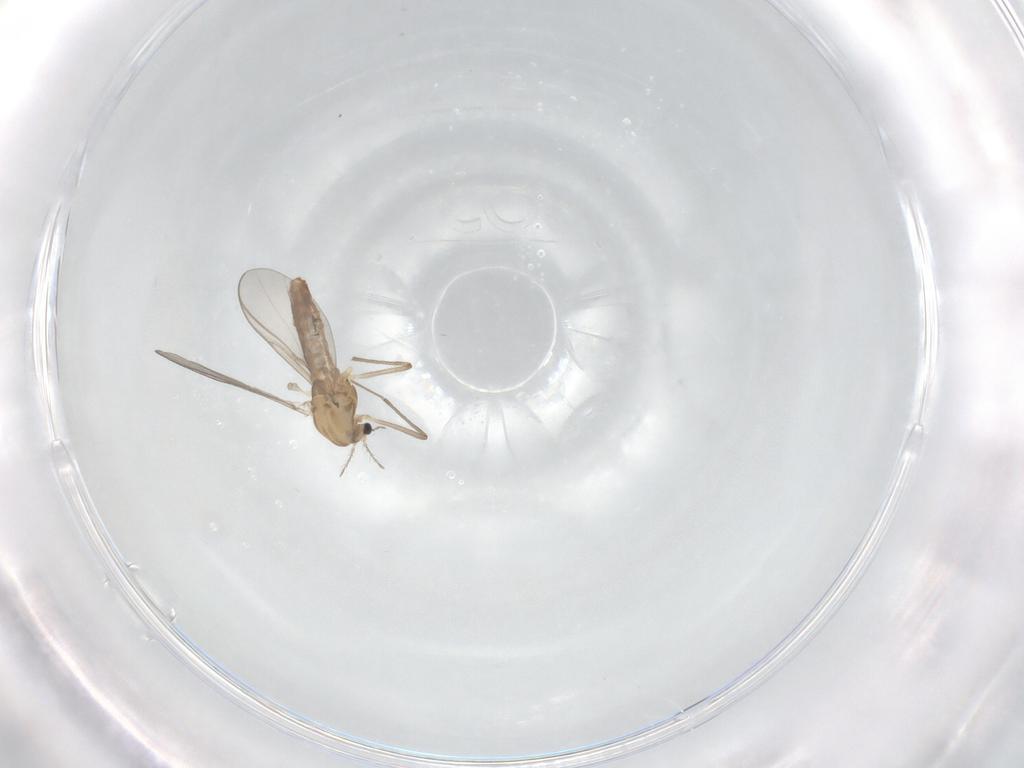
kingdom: Animalia
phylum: Arthropoda
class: Insecta
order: Diptera
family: Chironomidae
